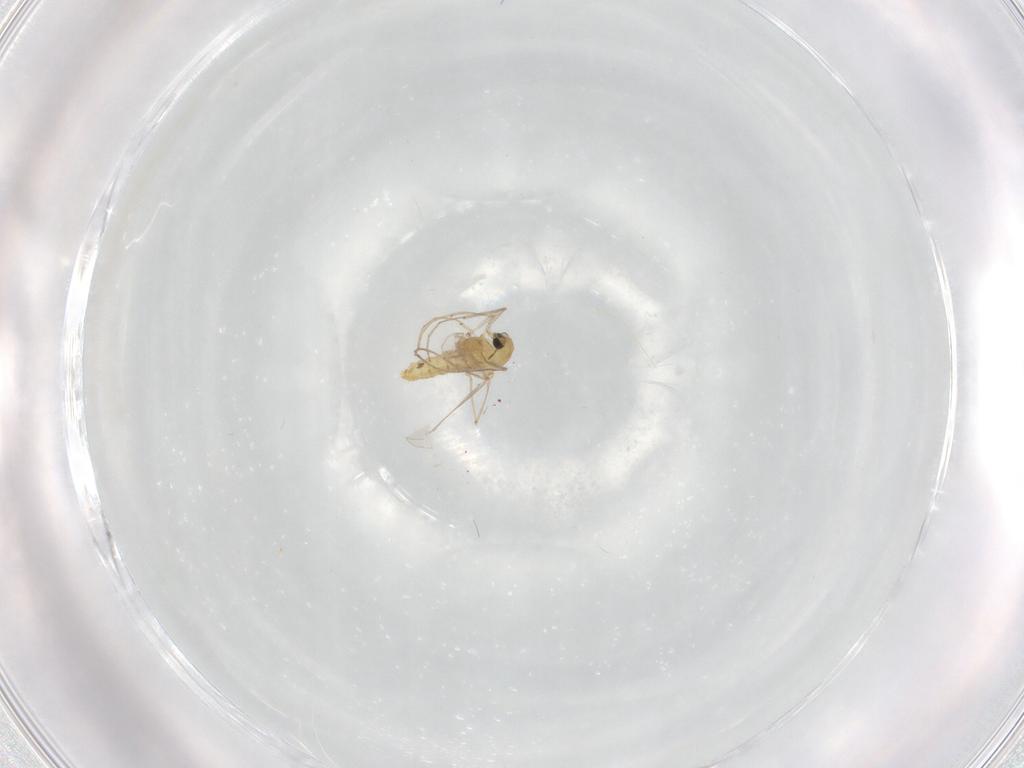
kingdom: Animalia
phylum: Arthropoda
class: Insecta
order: Diptera
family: Chironomidae
